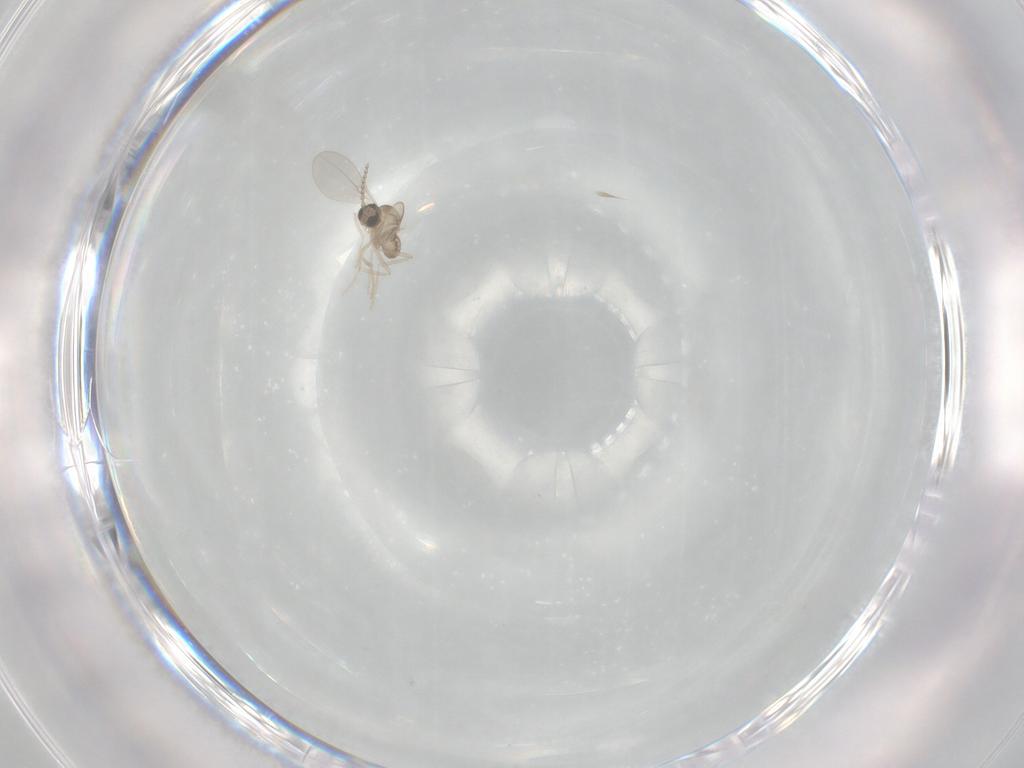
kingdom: Animalia
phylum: Arthropoda
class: Insecta
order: Diptera
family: Cecidomyiidae
